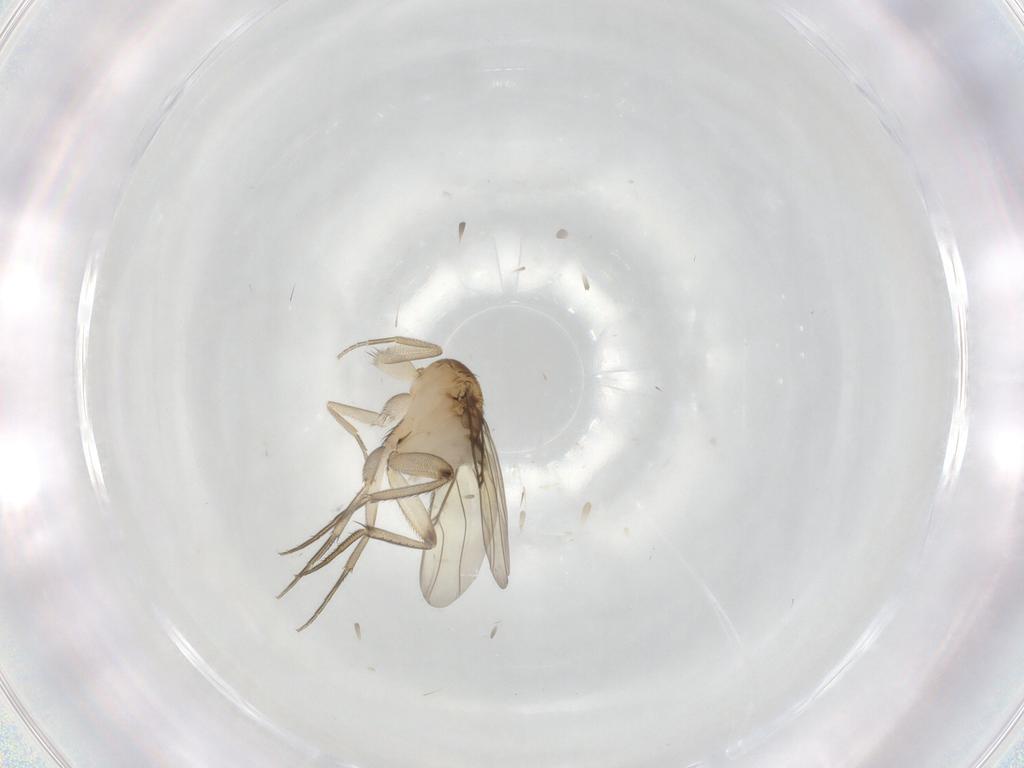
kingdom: Animalia
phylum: Arthropoda
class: Insecta
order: Diptera
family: Phoridae
